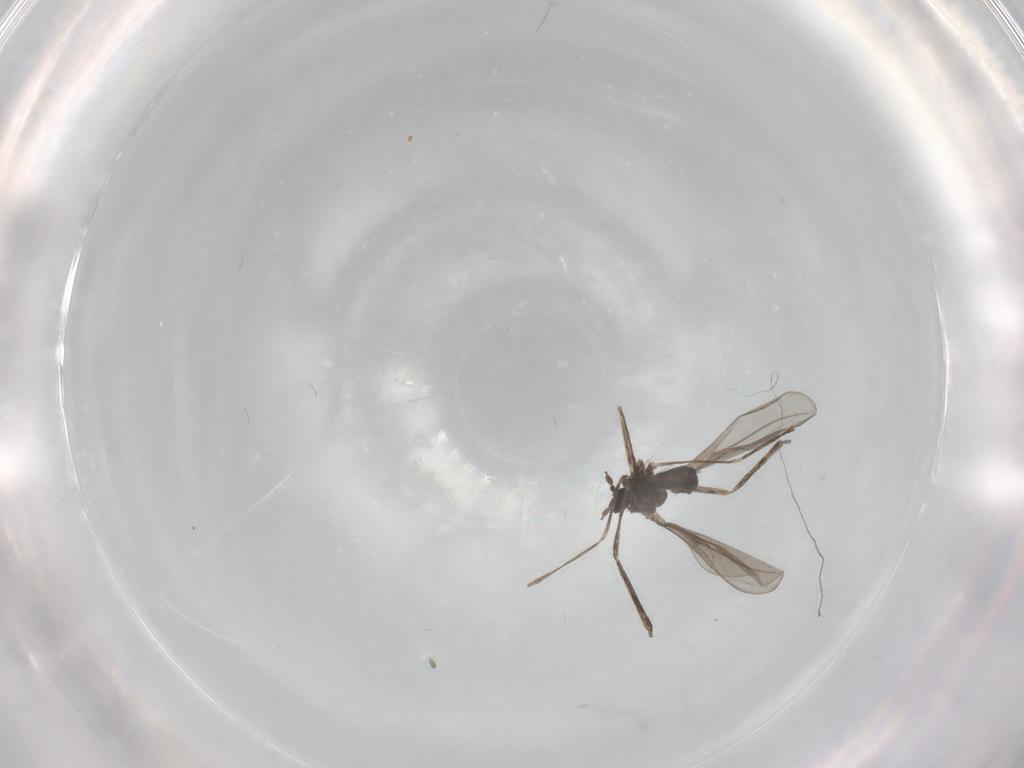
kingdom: Animalia
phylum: Arthropoda
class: Insecta
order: Diptera
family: Cecidomyiidae
